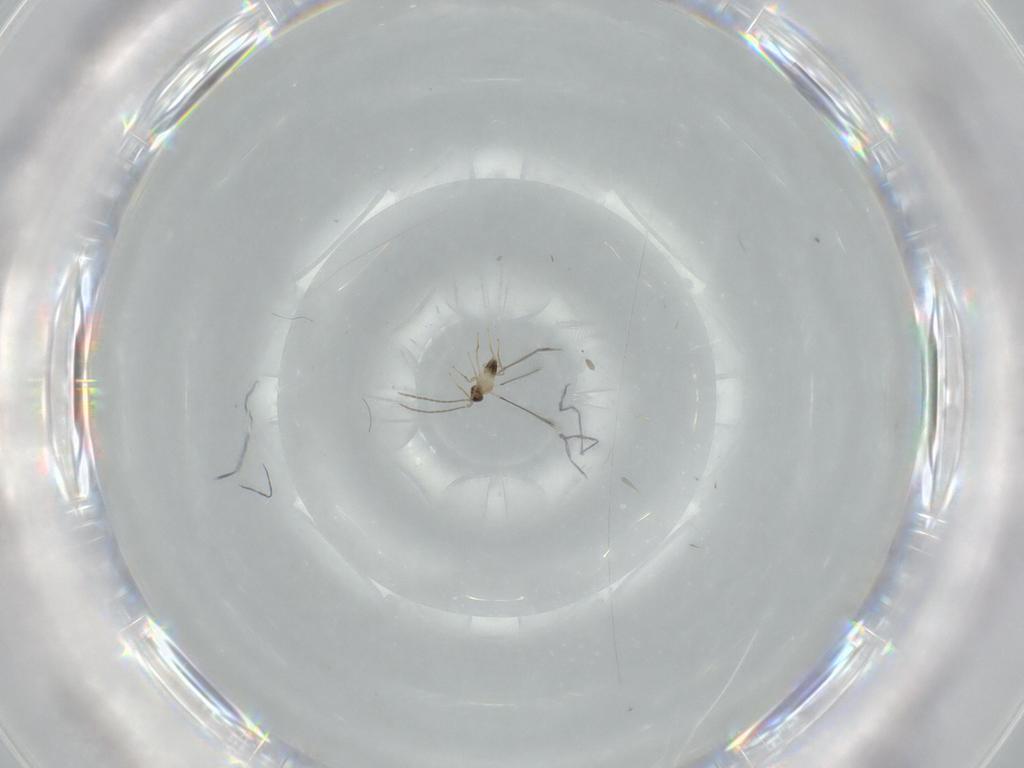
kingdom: Animalia
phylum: Arthropoda
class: Insecta
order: Hymenoptera
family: Mymaridae
